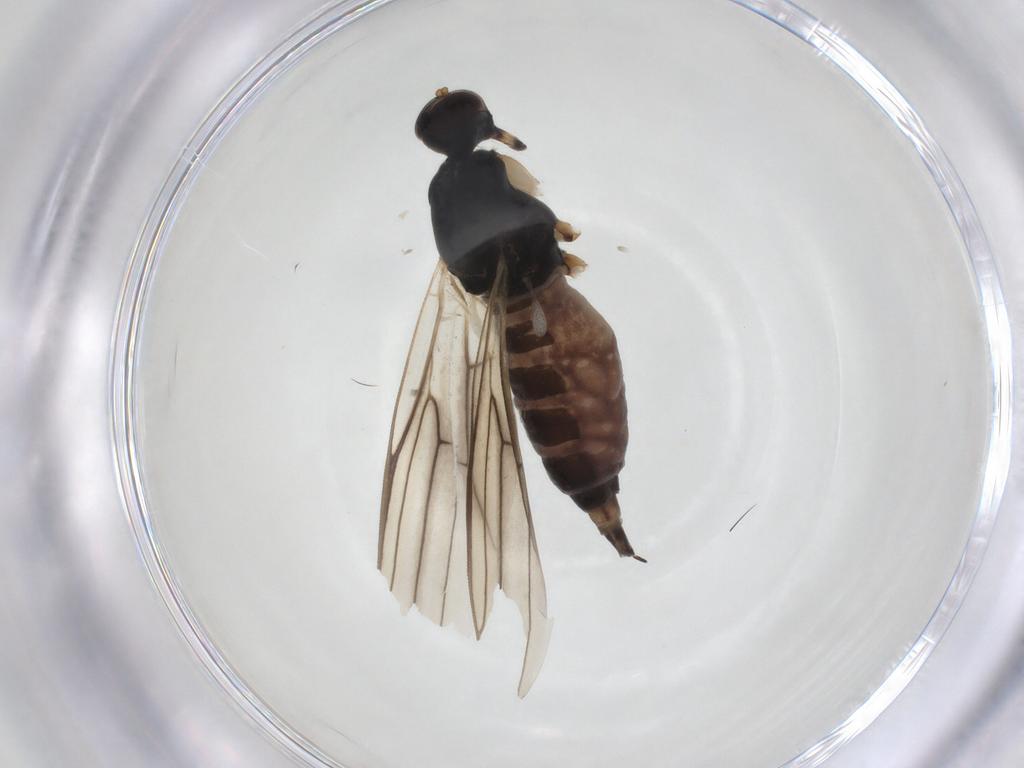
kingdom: Animalia
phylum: Arthropoda
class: Insecta
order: Diptera
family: Hybotidae
